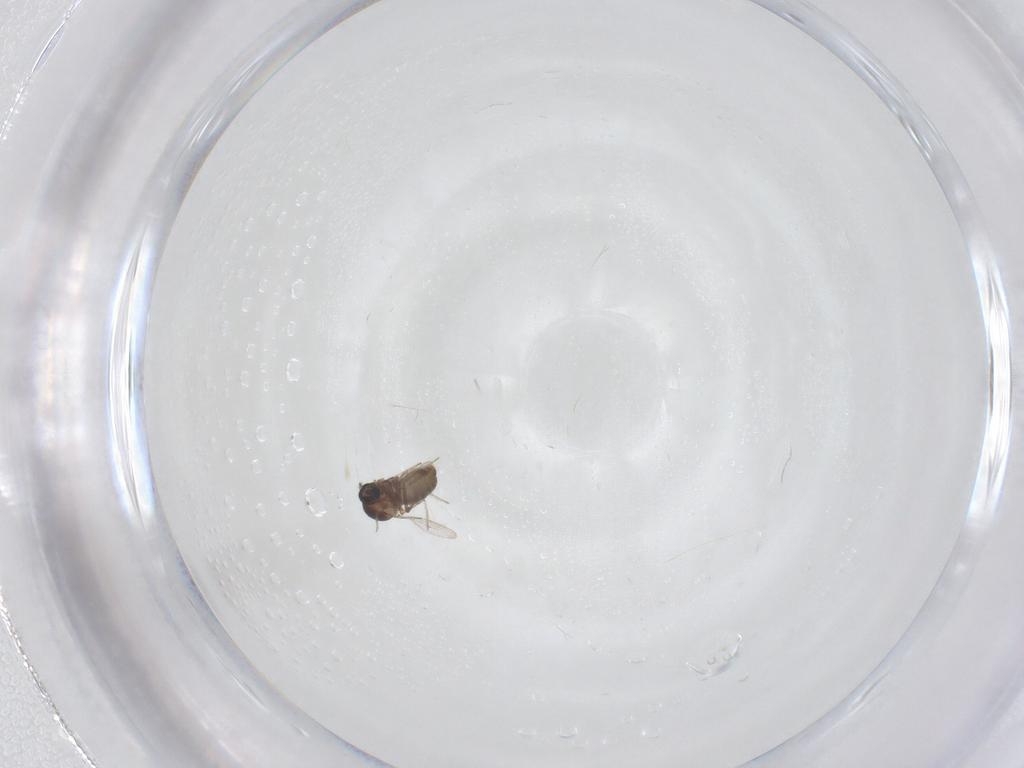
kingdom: Animalia
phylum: Arthropoda
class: Insecta
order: Diptera
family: Ceratopogonidae
